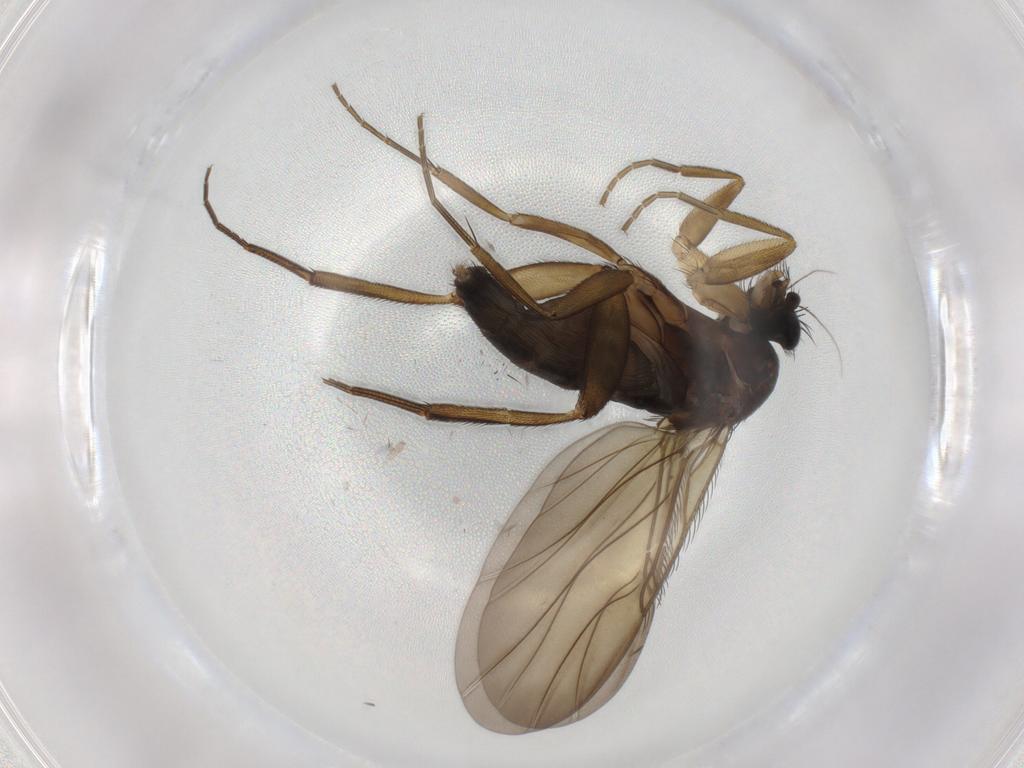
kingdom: Animalia
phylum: Arthropoda
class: Insecta
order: Diptera
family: Phoridae
